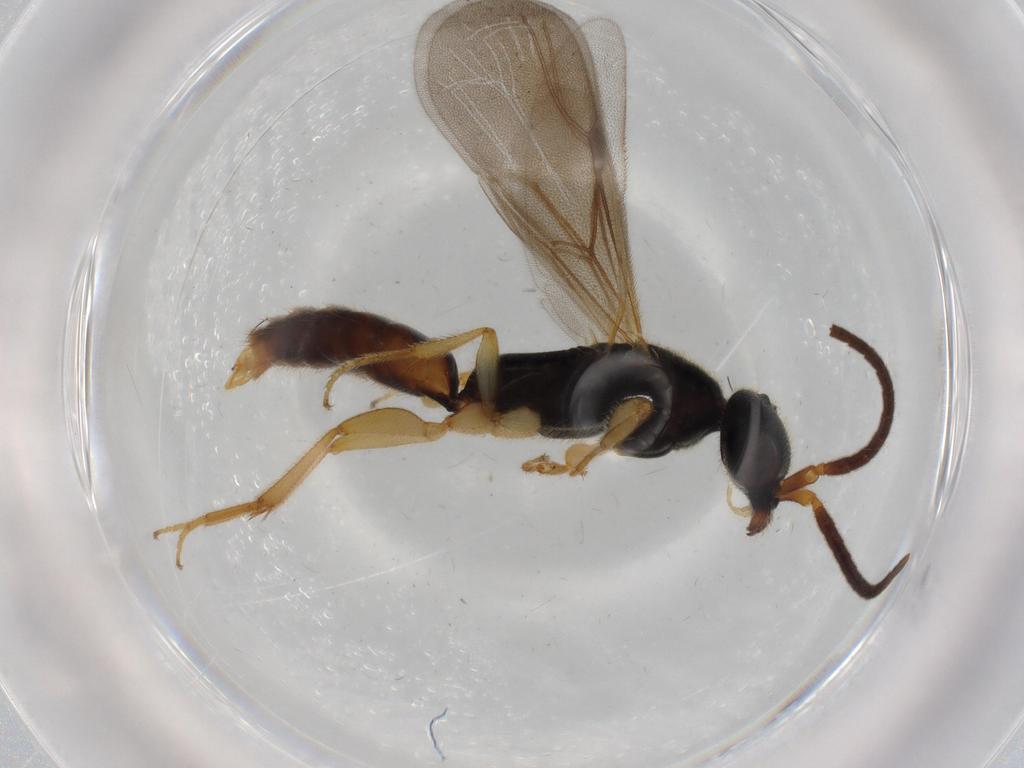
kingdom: Animalia
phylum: Arthropoda
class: Insecta
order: Hymenoptera
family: Bethylidae
